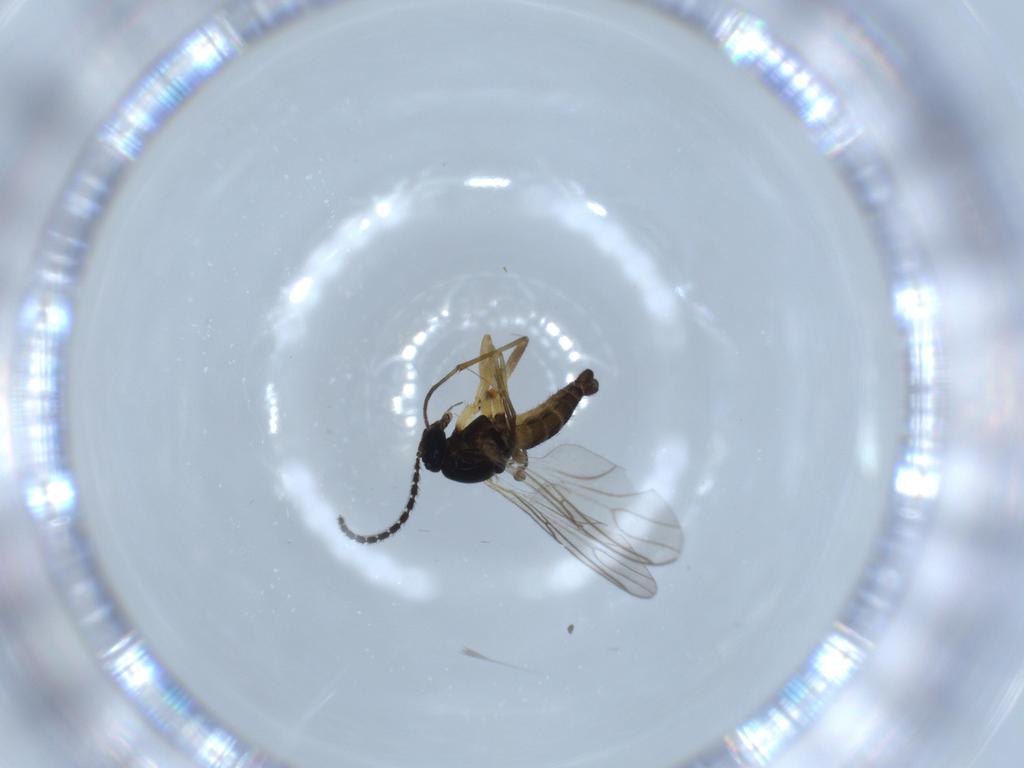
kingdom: Animalia
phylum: Arthropoda
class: Insecta
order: Diptera
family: Sciaridae
